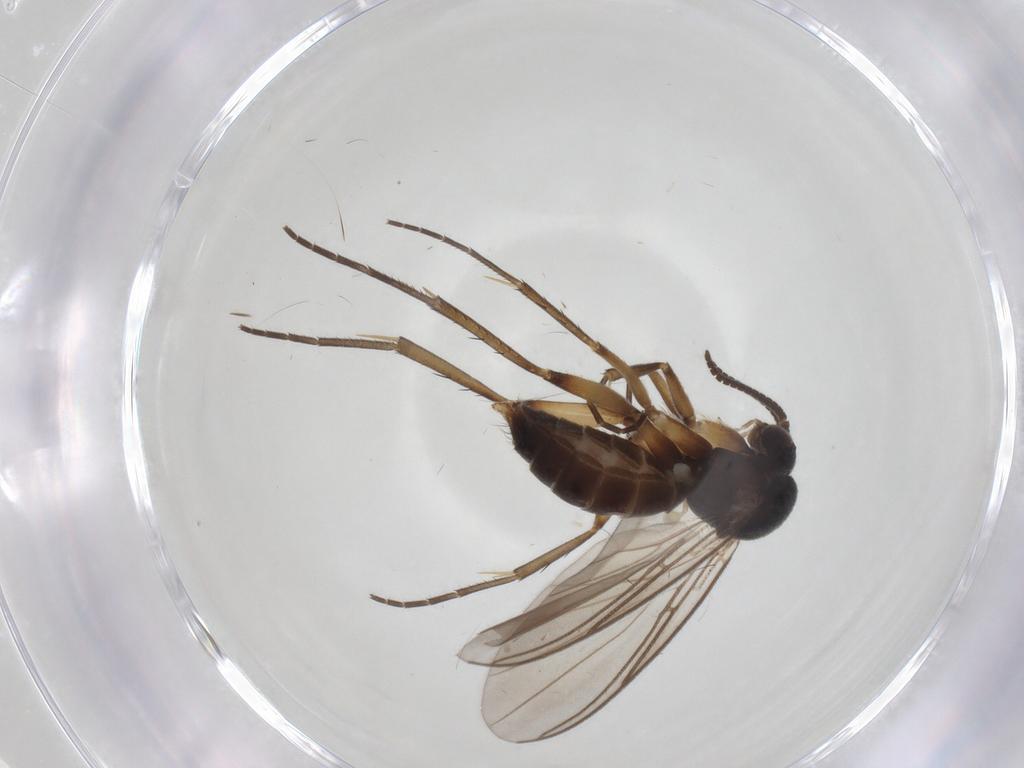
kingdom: Animalia
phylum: Arthropoda
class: Insecta
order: Diptera
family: Mycetophilidae
